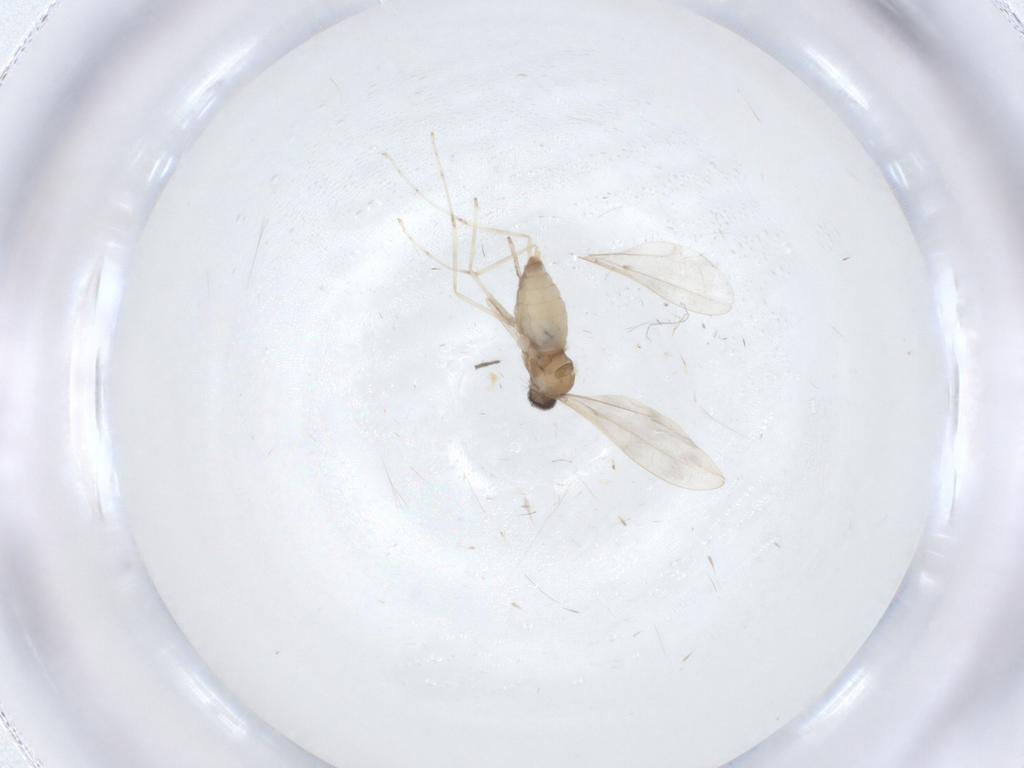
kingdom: Animalia
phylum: Arthropoda
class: Insecta
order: Diptera
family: Cecidomyiidae
